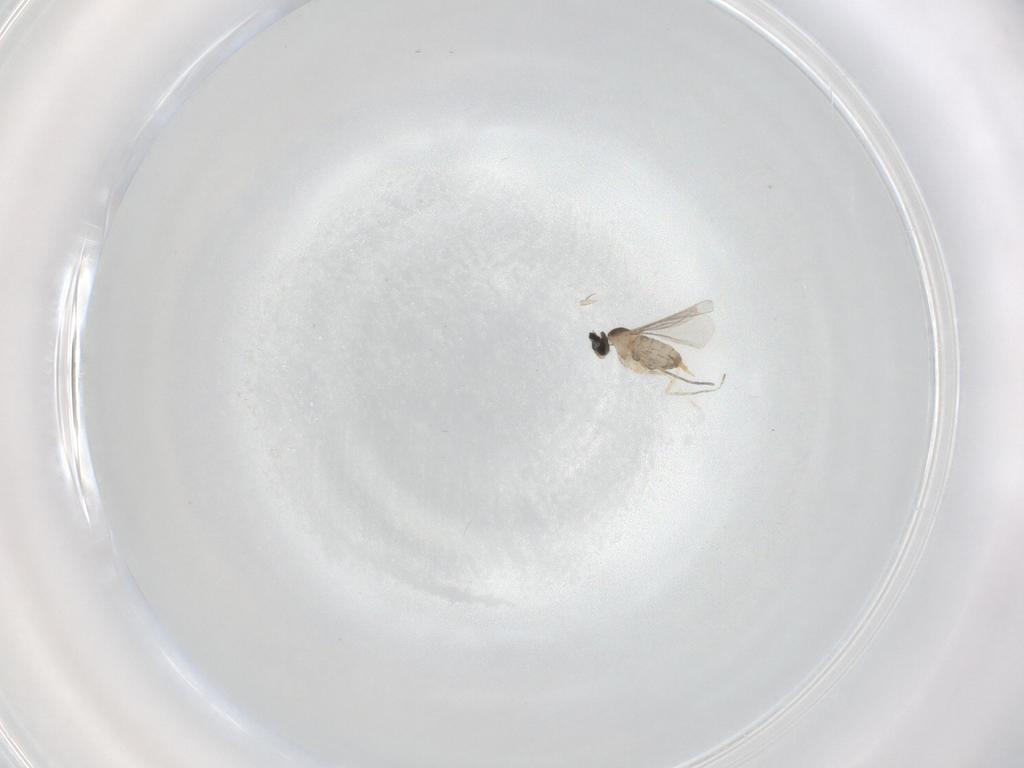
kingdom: Animalia
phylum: Arthropoda
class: Insecta
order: Diptera
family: Cecidomyiidae
